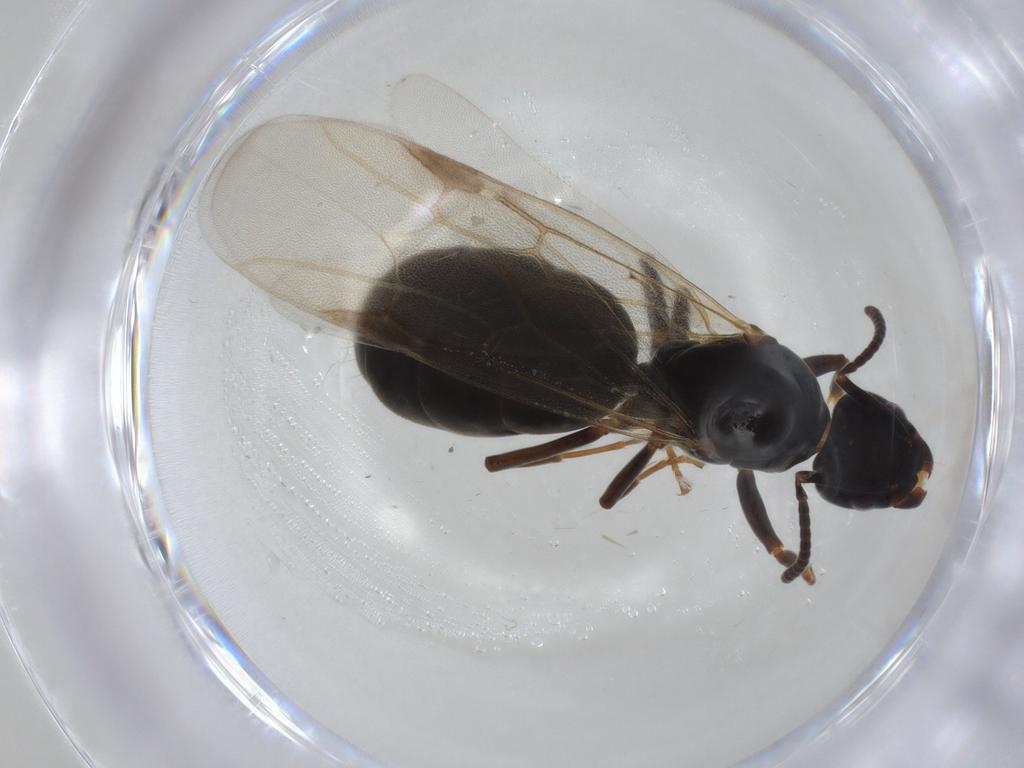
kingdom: Animalia
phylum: Arthropoda
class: Insecta
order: Hymenoptera
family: Formicidae
